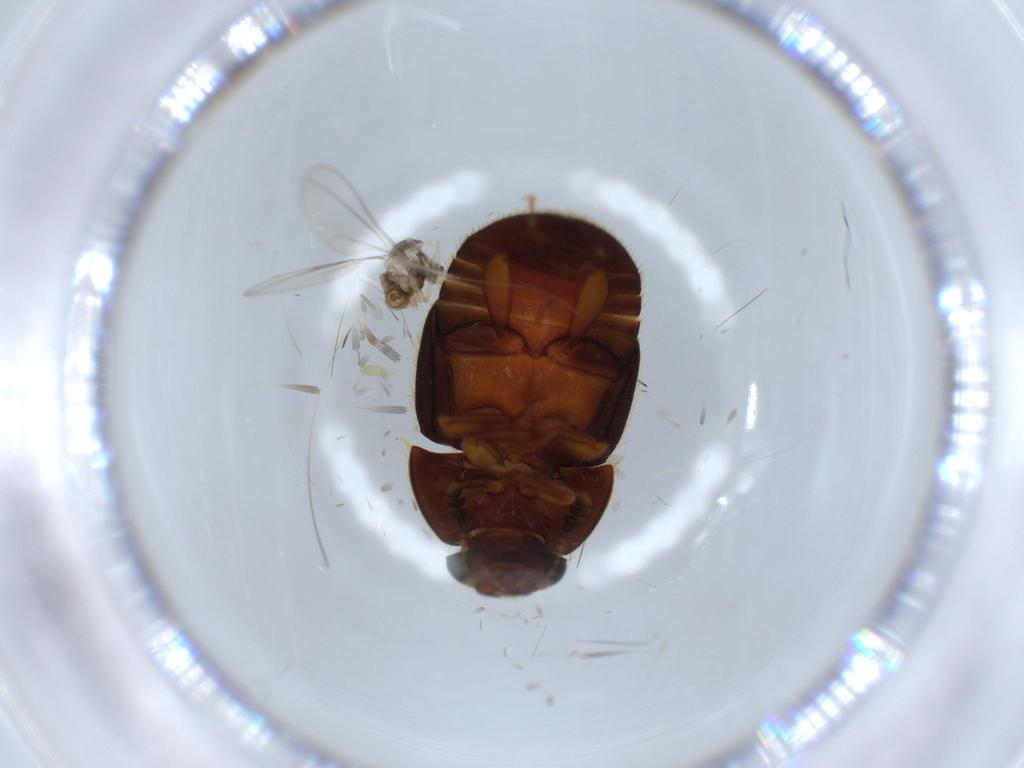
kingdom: Animalia
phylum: Arthropoda
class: Insecta
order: Coleoptera
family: Nitidulidae
